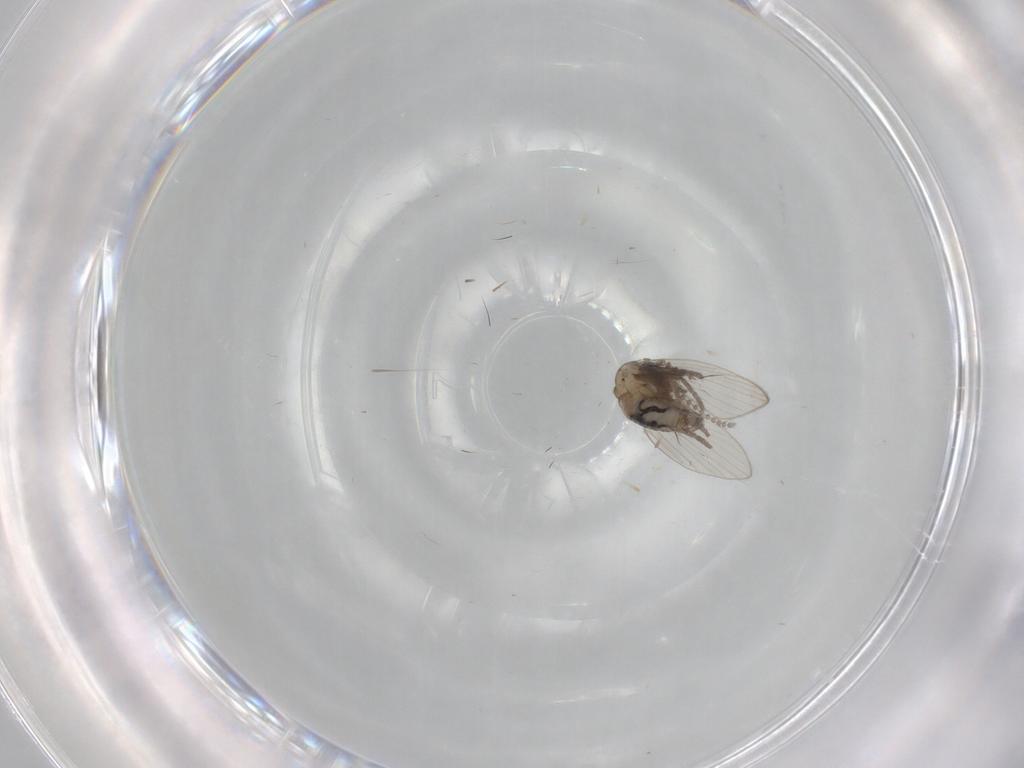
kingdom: Animalia
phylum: Arthropoda
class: Insecta
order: Diptera
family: Psychodidae
